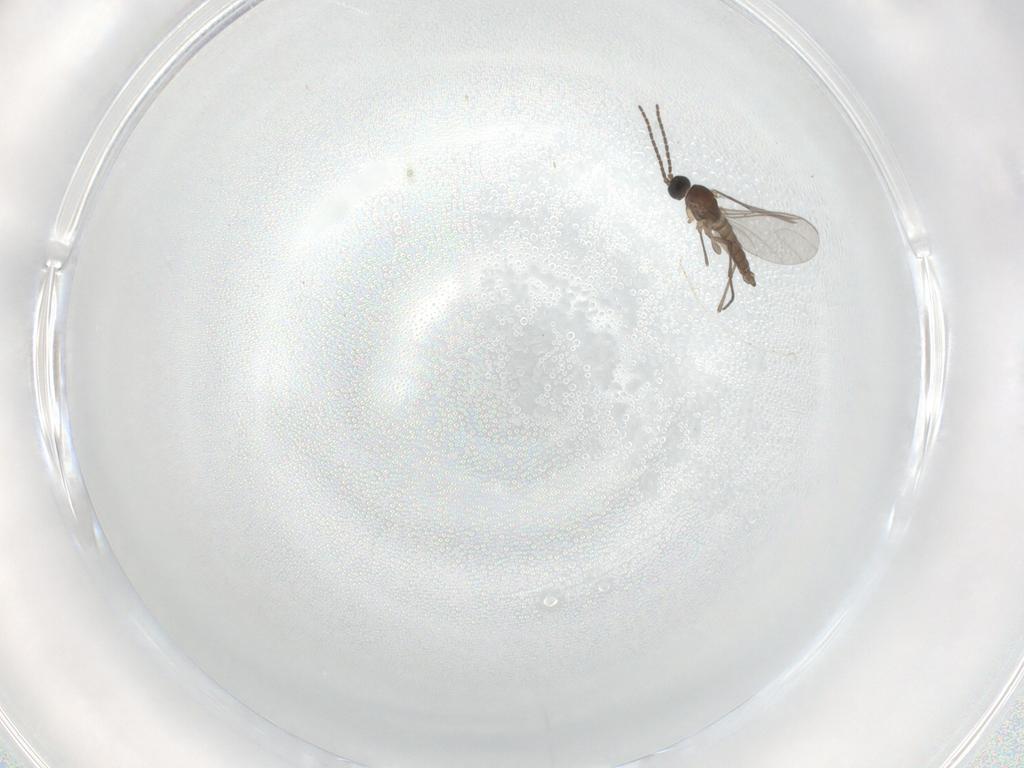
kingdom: Animalia
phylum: Arthropoda
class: Insecta
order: Diptera
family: Sciaridae
